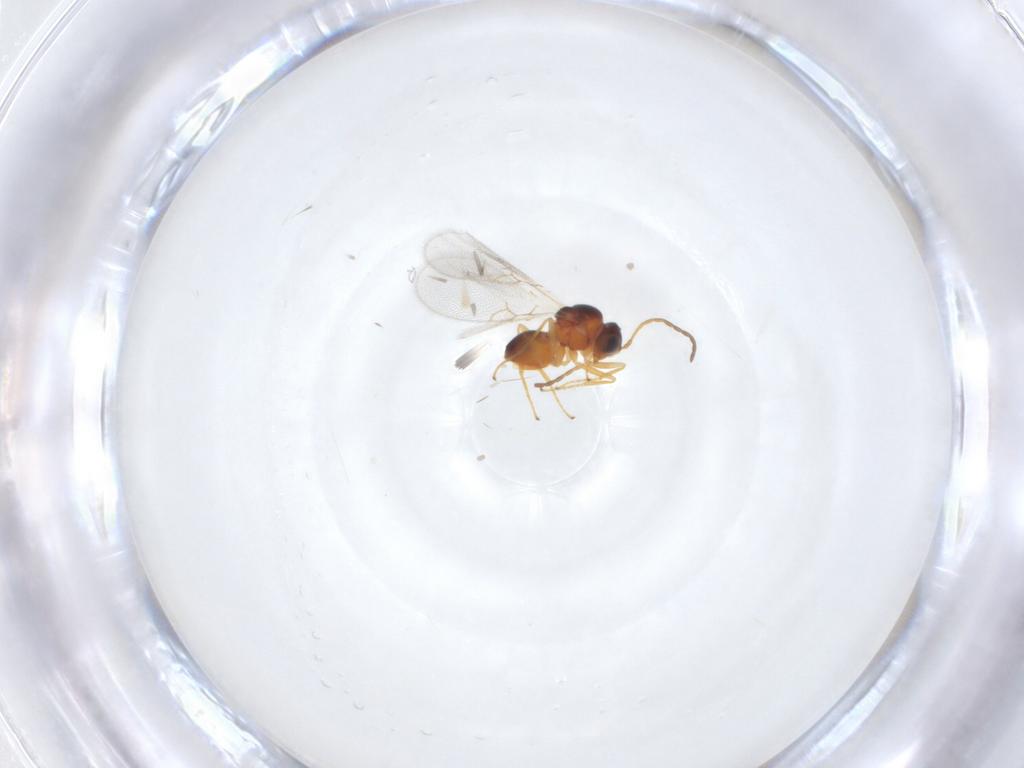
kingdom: Animalia
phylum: Arthropoda
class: Insecta
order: Hymenoptera
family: Figitidae
